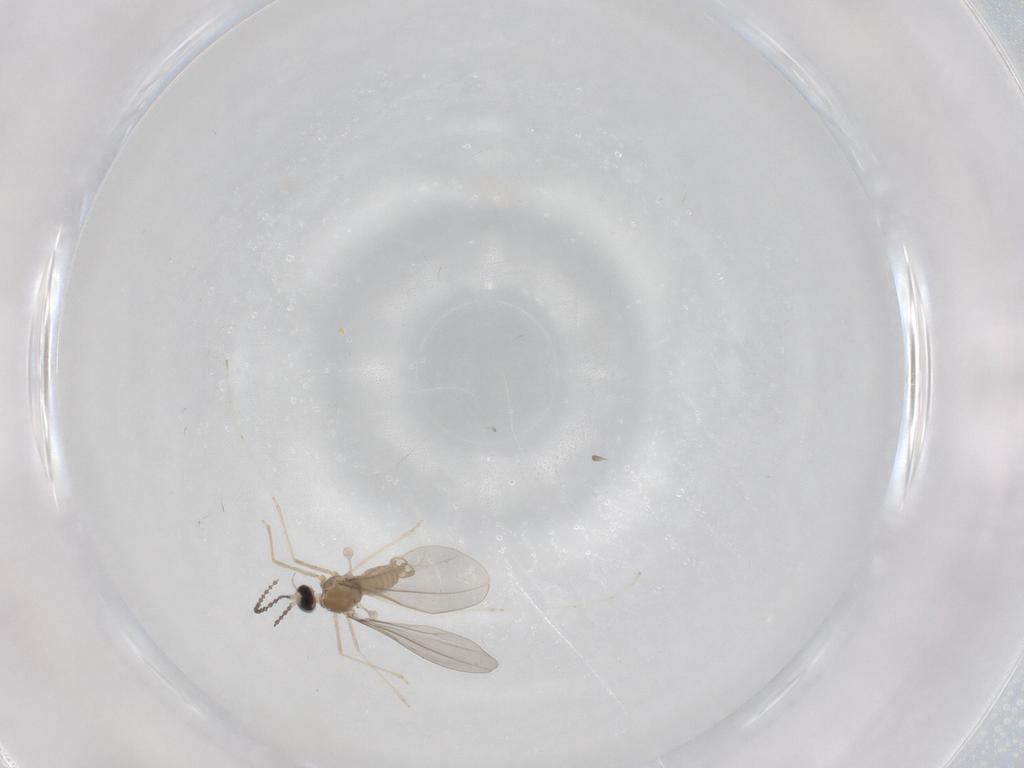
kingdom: Animalia
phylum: Arthropoda
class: Insecta
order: Diptera
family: Cecidomyiidae
